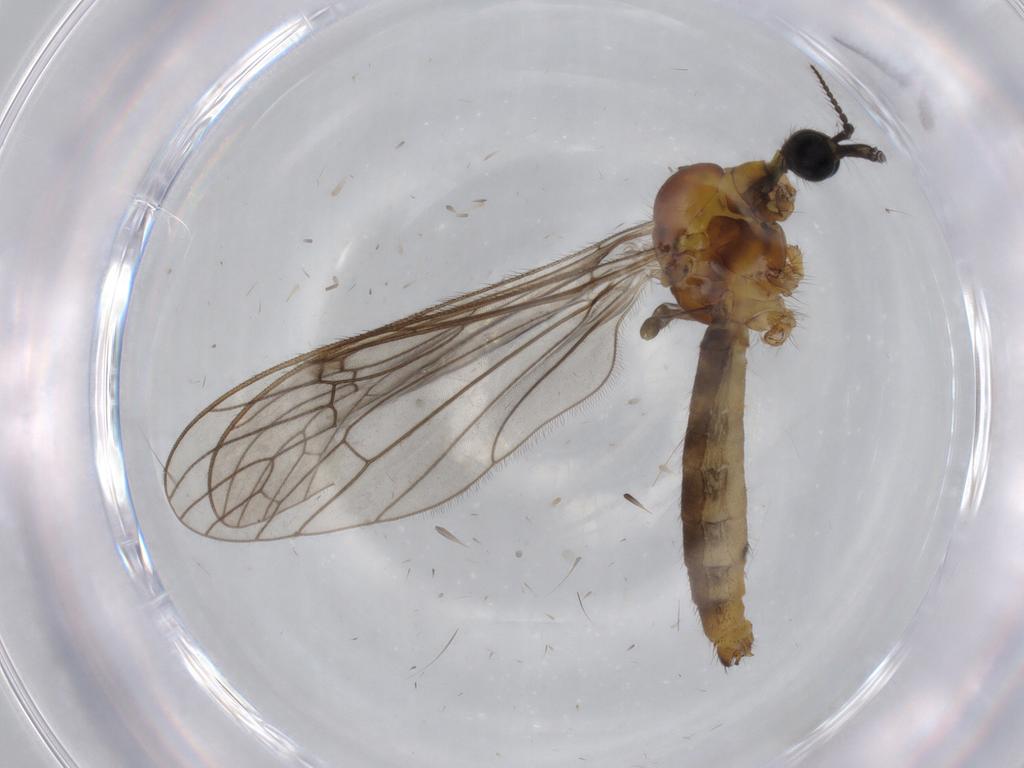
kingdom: Animalia
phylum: Arthropoda
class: Insecta
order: Diptera
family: Limoniidae
